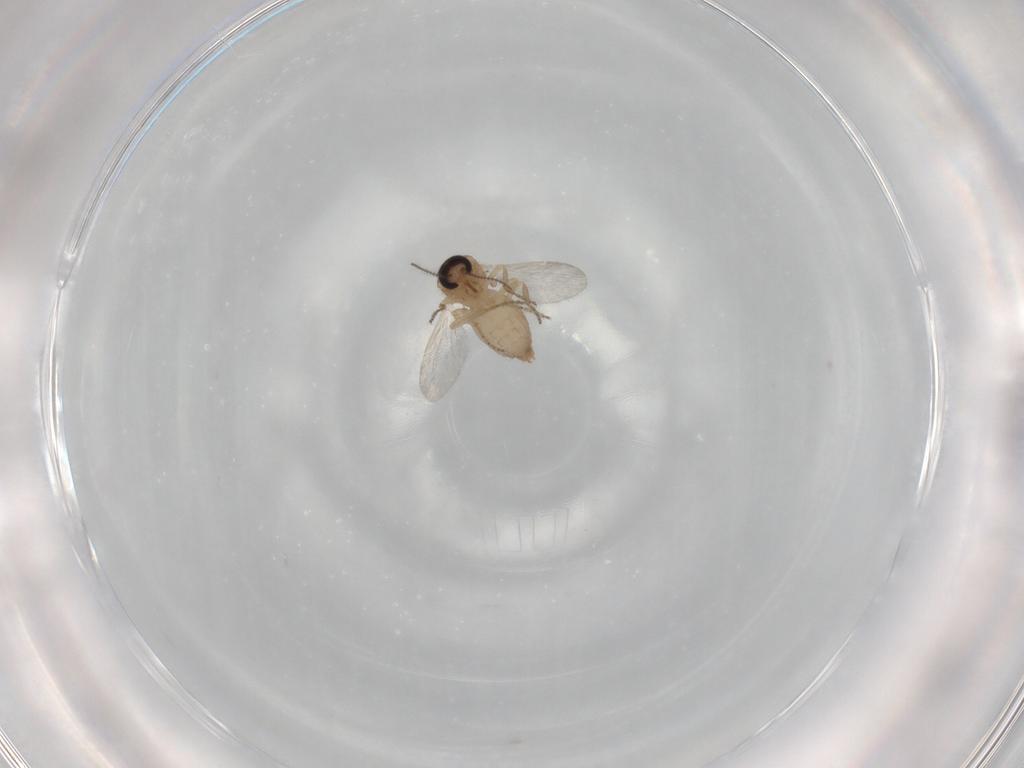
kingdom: Animalia
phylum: Arthropoda
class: Insecta
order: Diptera
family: Ceratopogonidae
